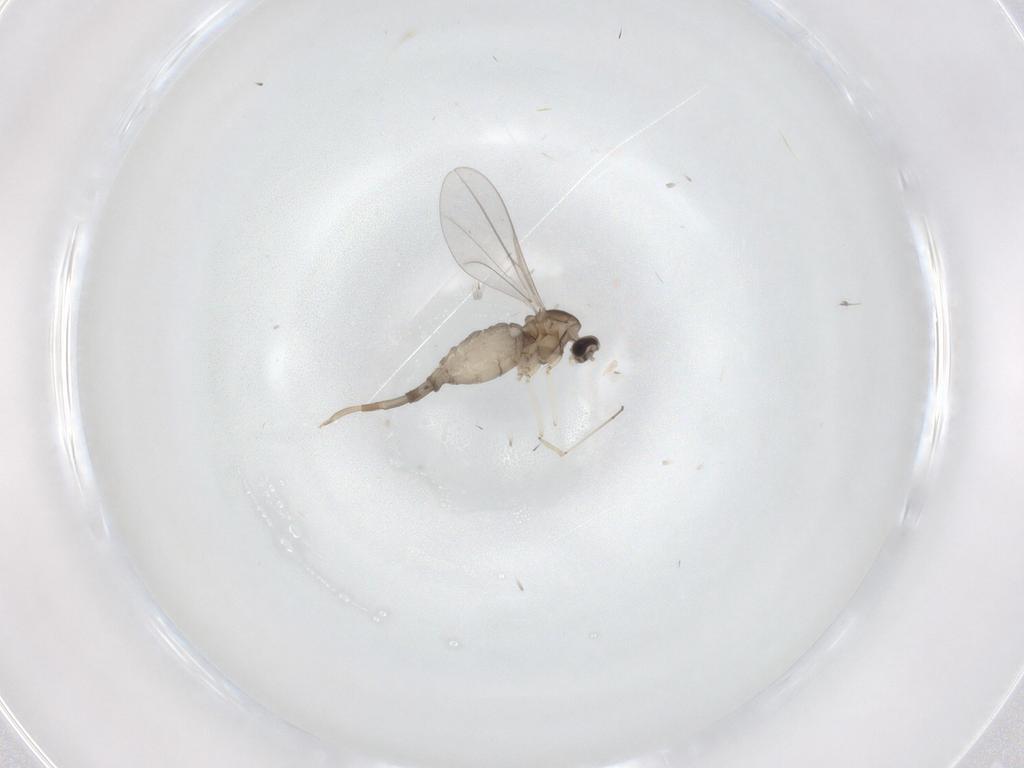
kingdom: Animalia
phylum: Arthropoda
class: Insecta
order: Diptera
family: Cecidomyiidae
